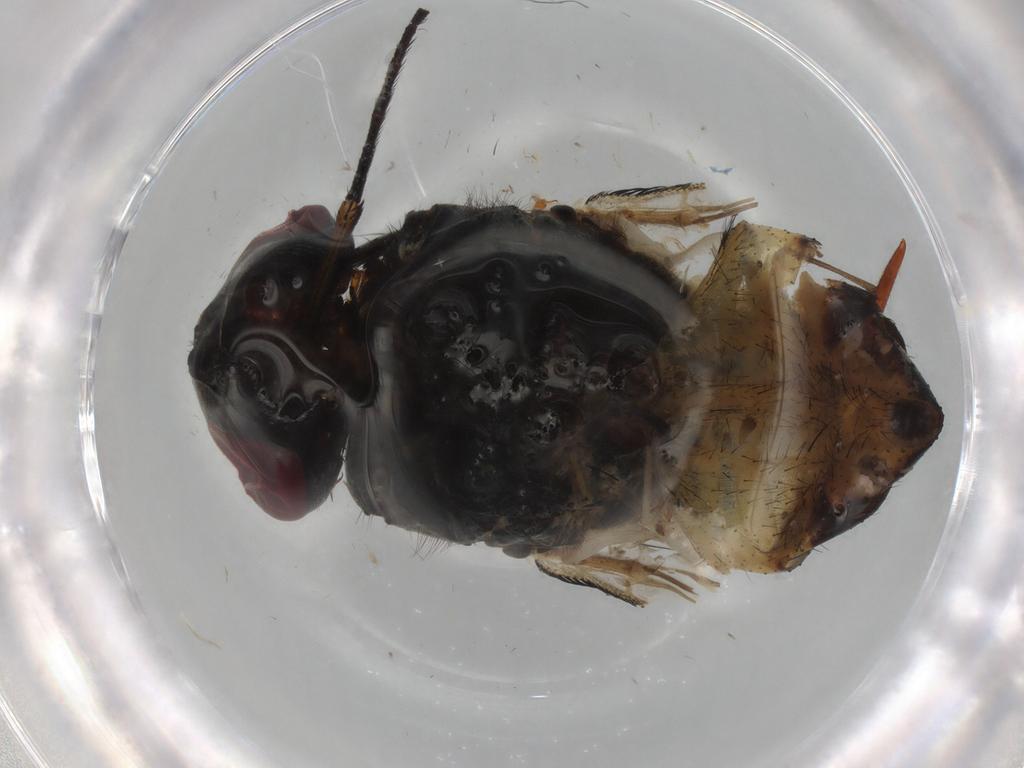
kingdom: Animalia
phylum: Arthropoda
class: Insecta
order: Diptera
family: Muscidae
